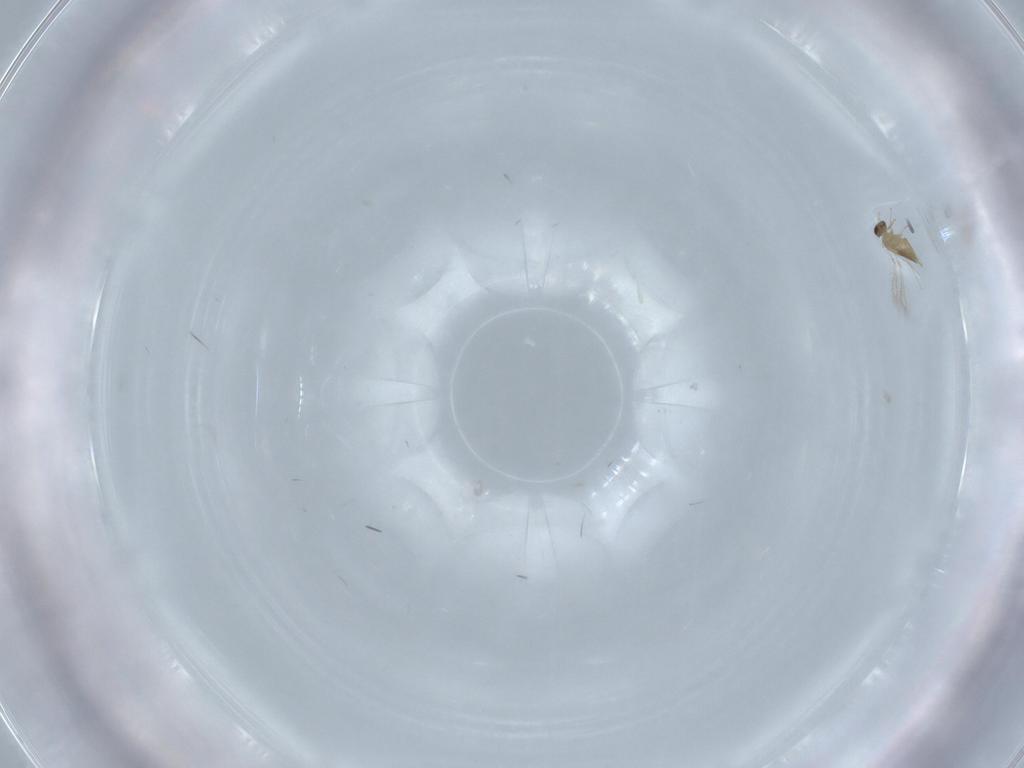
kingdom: Animalia
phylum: Arthropoda
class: Insecta
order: Hymenoptera
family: Mymaridae
